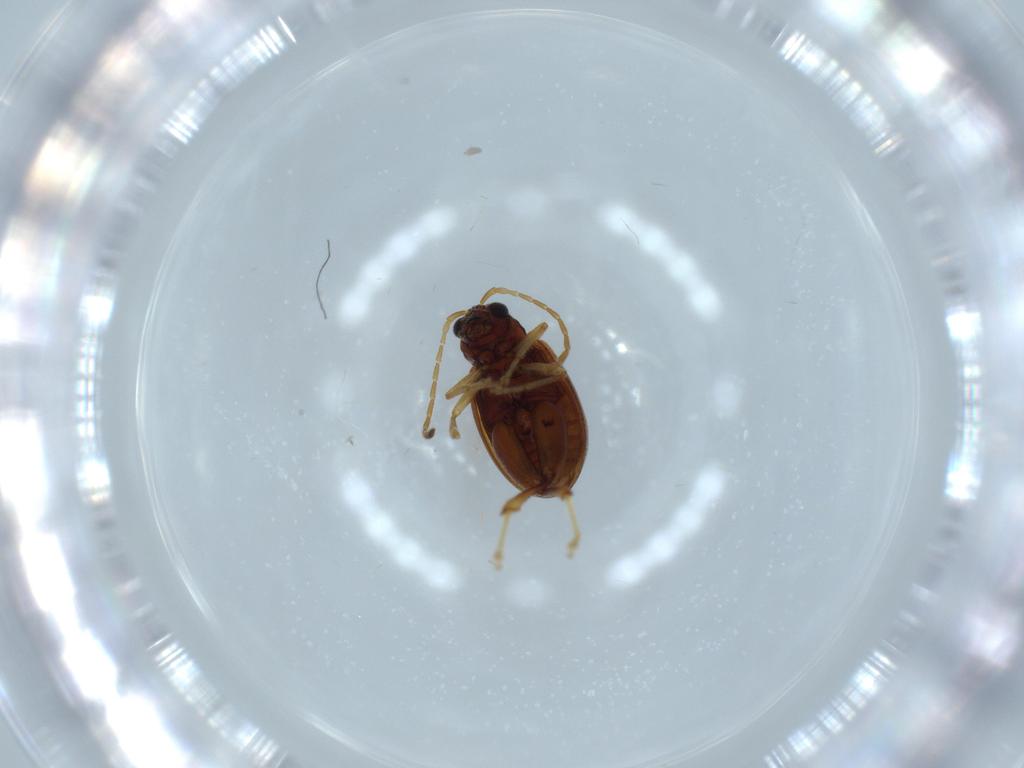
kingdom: Animalia
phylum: Arthropoda
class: Insecta
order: Coleoptera
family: Chrysomelidae
